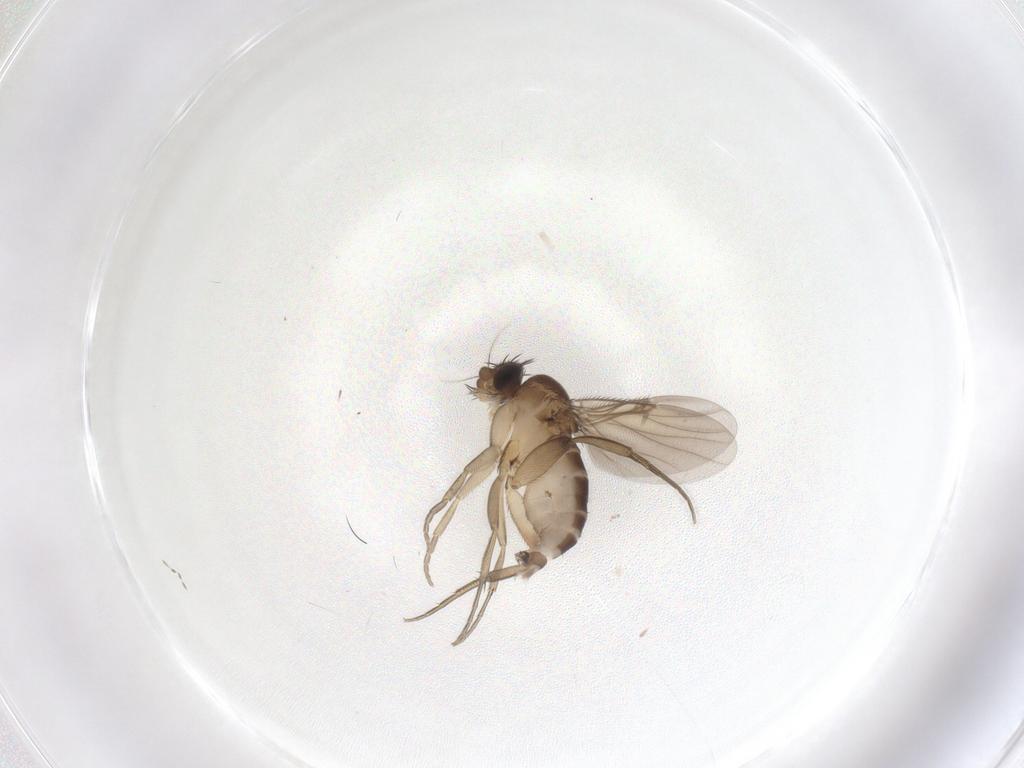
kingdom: Animalia
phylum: Arthropoda
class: Insecta
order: Diptera
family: Phoridae
